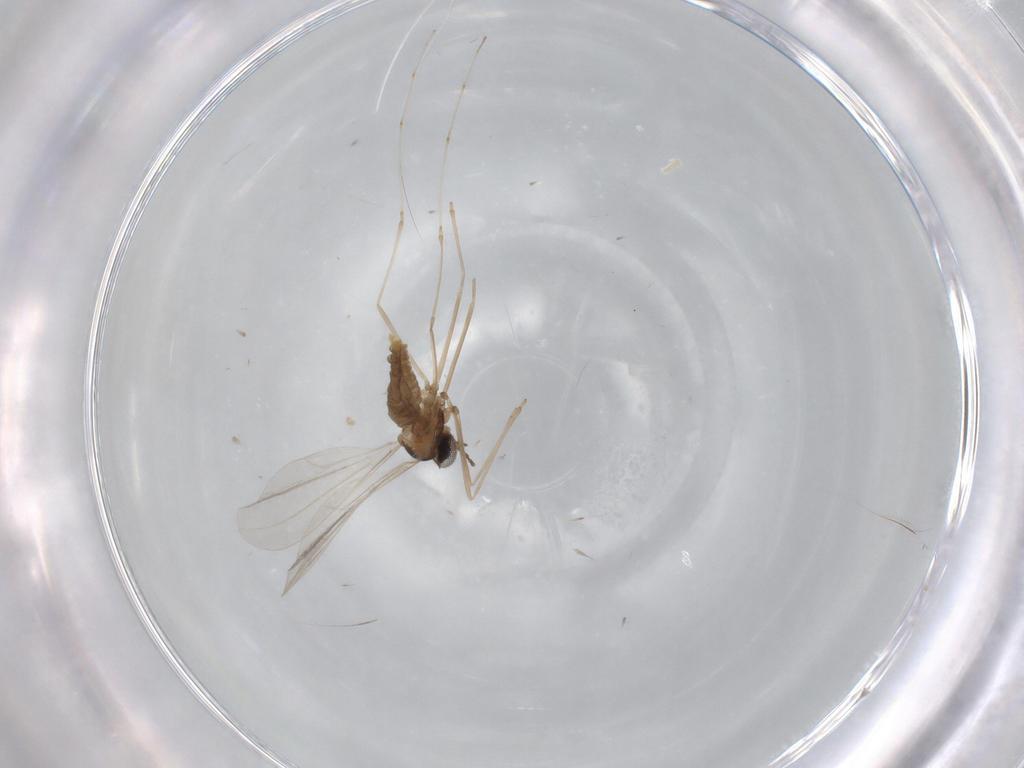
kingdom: Animalia
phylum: Arthropoda
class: Insecta
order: Diptera
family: Cecidomyiidae
